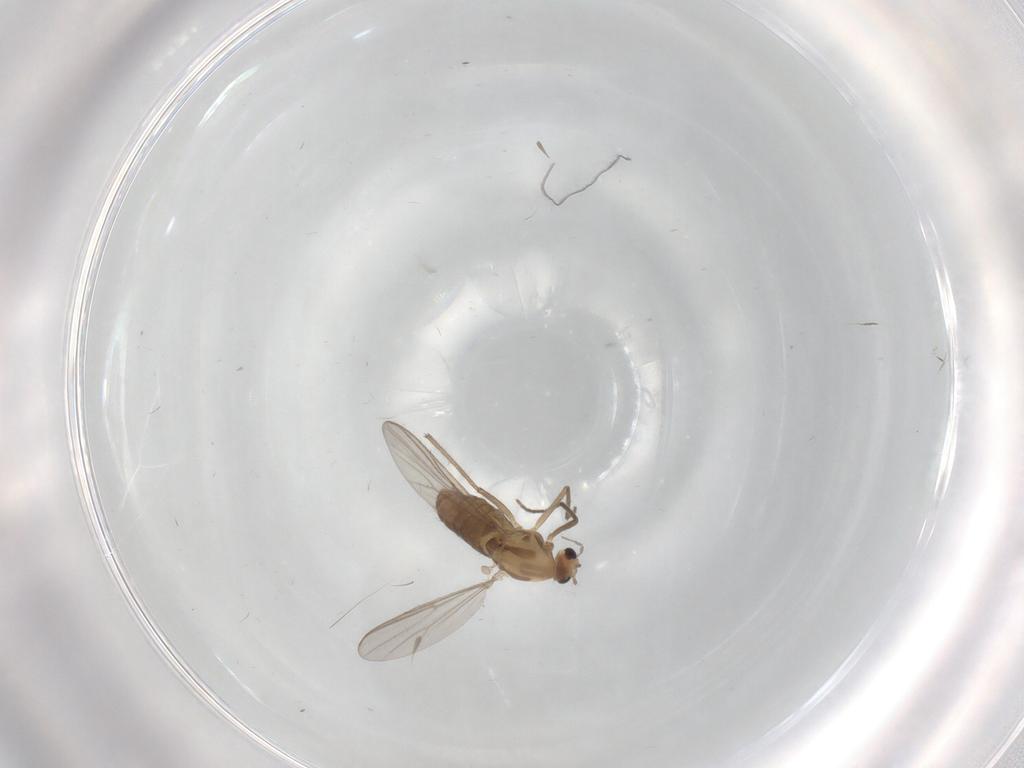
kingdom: Animalia
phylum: Arthropoda
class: Insecta
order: Diptera
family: Chironomidae
